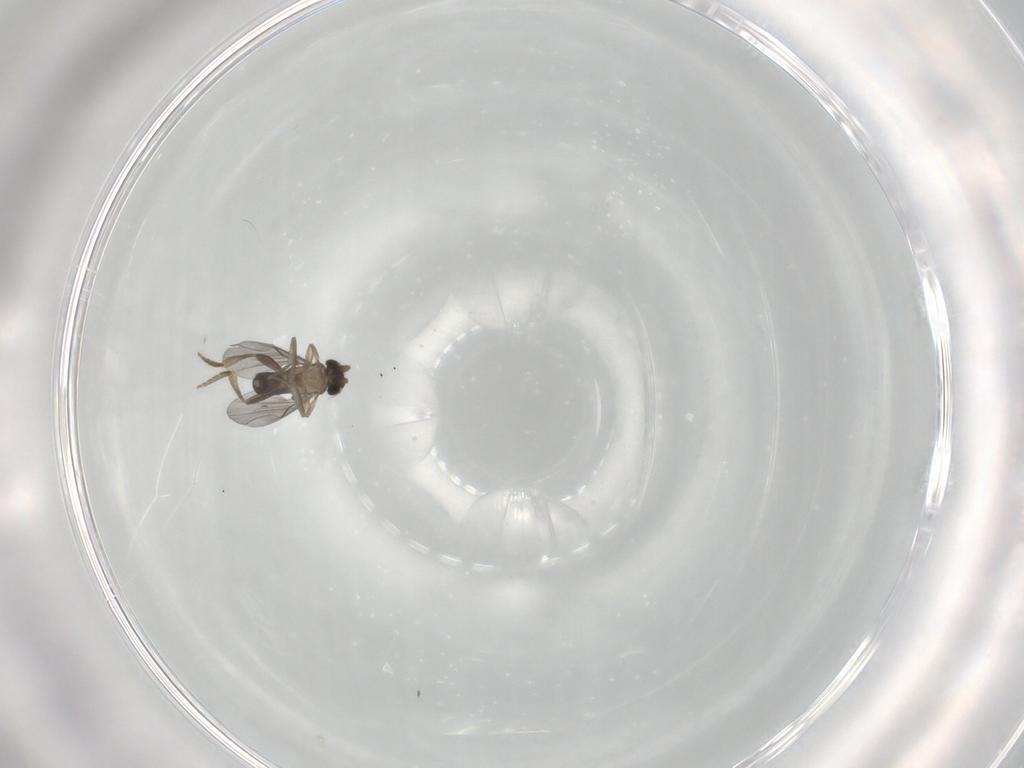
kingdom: Animalia
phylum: Arthropoda
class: Insecta
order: Diptera
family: Stratiomyidae
